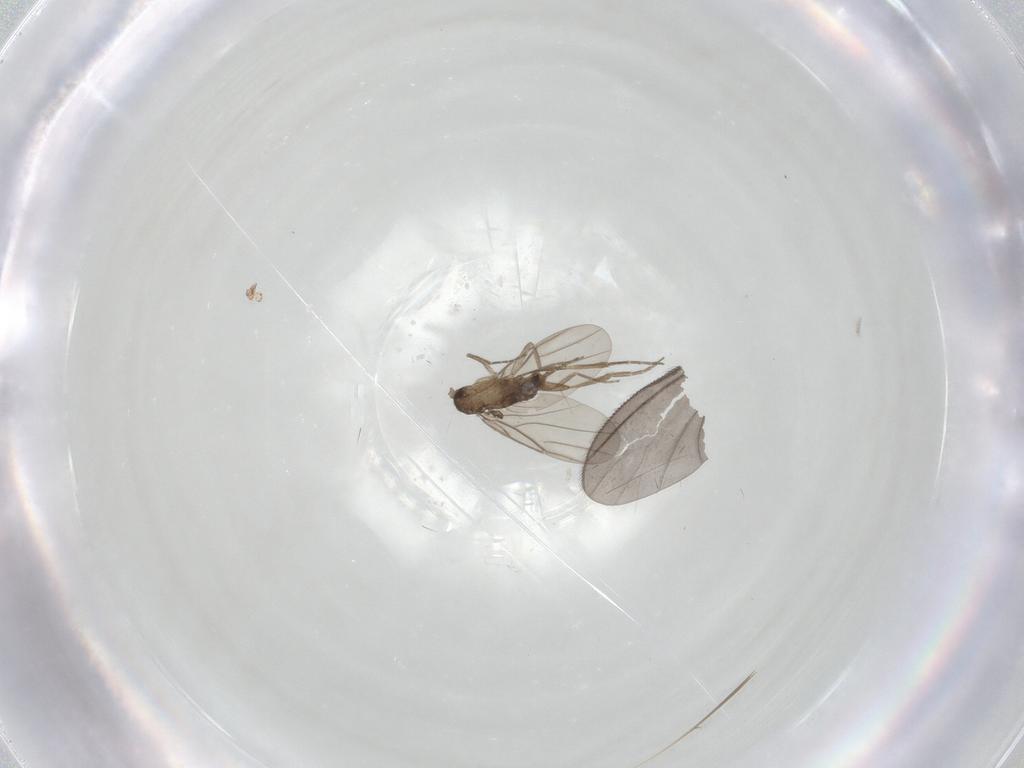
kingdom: Animalia
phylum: Arthropoda
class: Insecta
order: Diptera
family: Sciaridae
